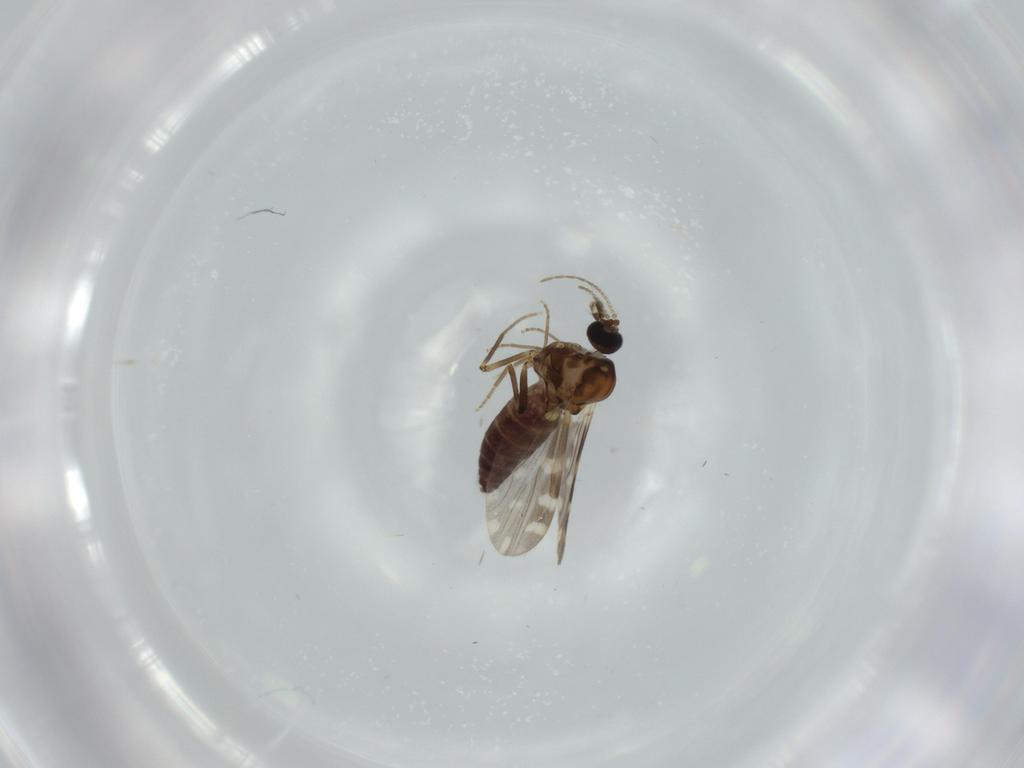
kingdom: Animalia
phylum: Arthropoda
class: Insecta
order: Diptera
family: Ceratopogonidae
